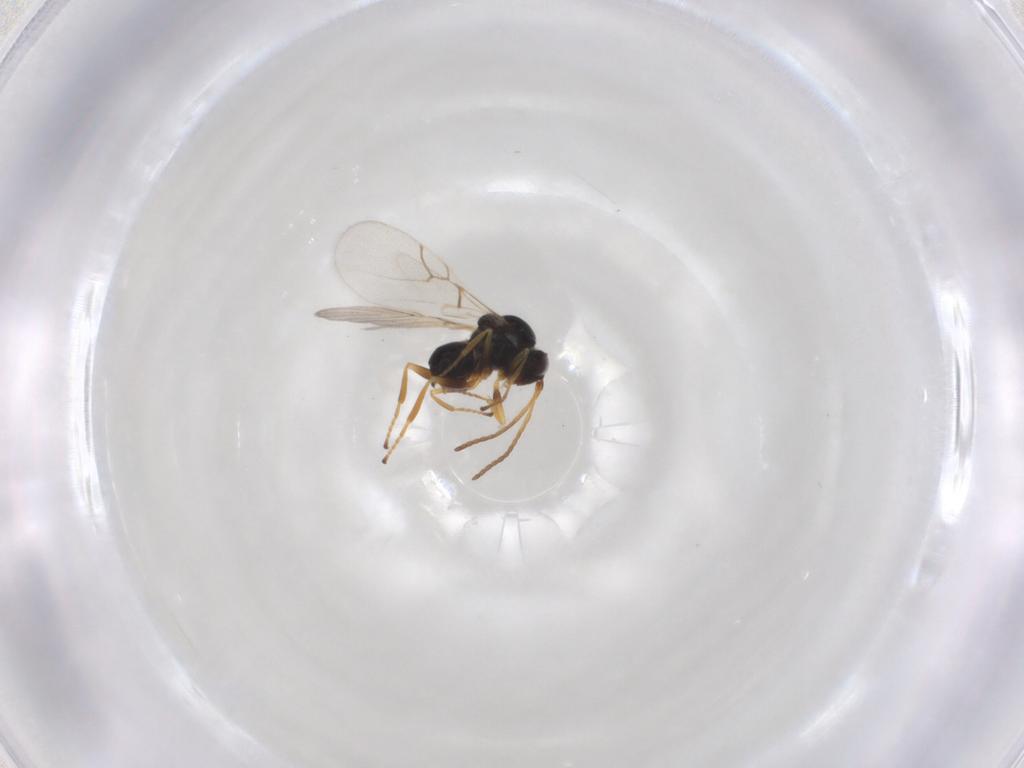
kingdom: Animalia
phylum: Arthropoda
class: Insecta
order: Hymenoptera
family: Figitidae
